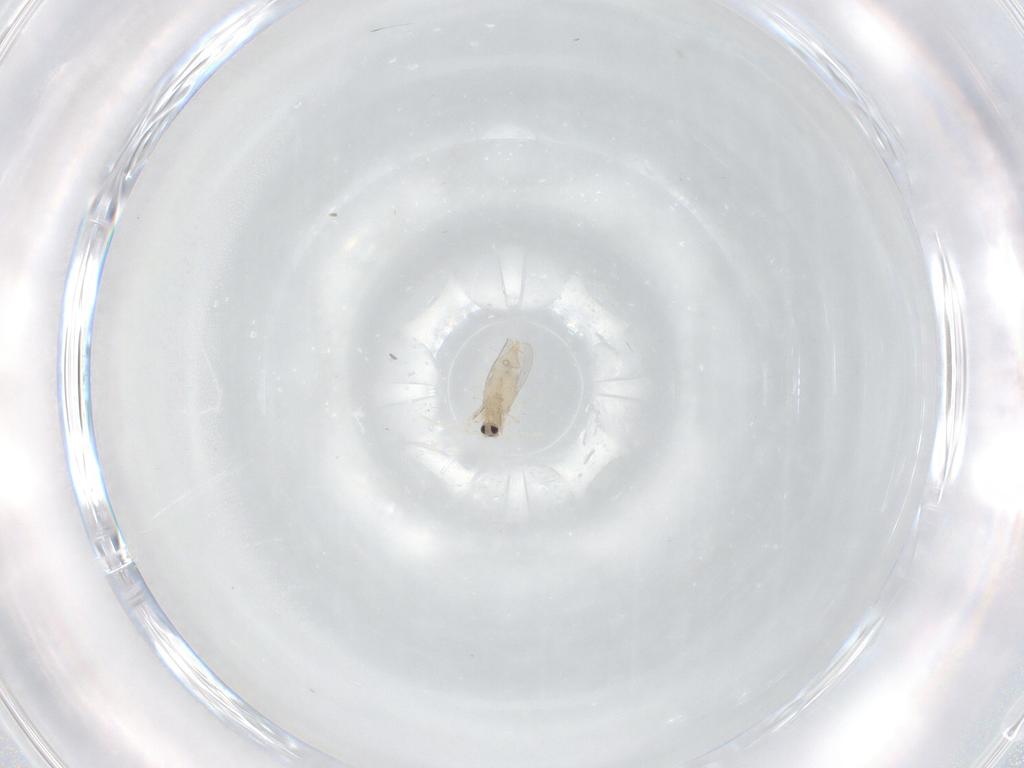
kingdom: Animalia
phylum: Arthropoda
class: Insecta
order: Diptera
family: Cecidomyiidae
